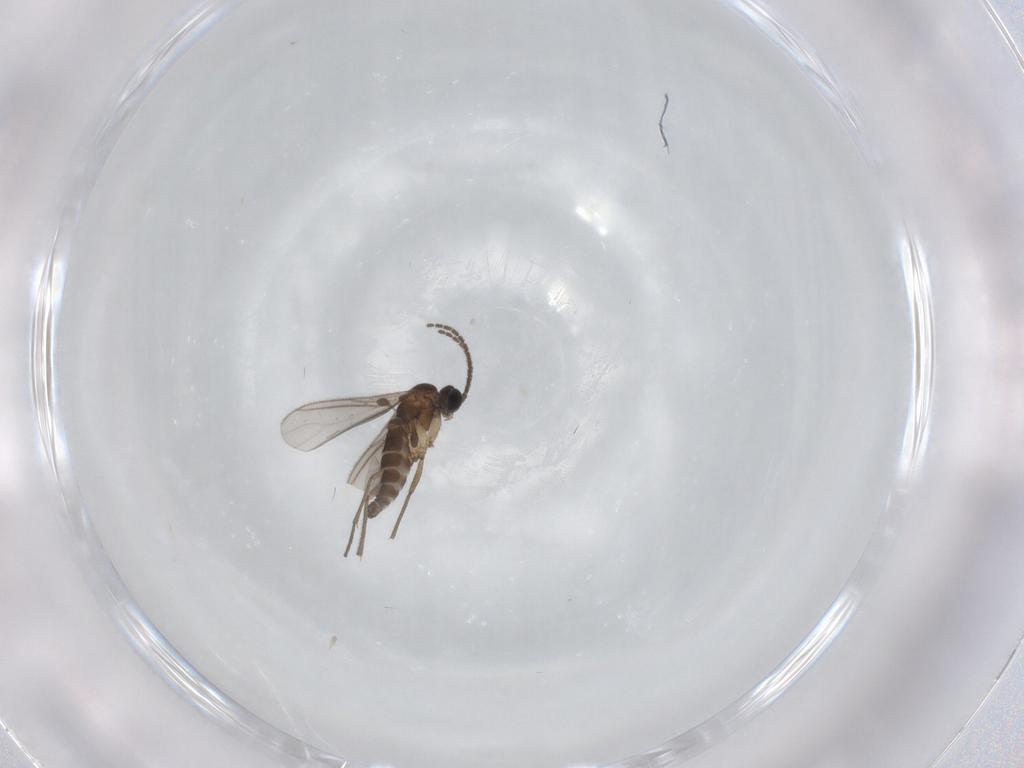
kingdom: Animalia
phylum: Arthropoda
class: Insecta
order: Diptera
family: Sciaridae
